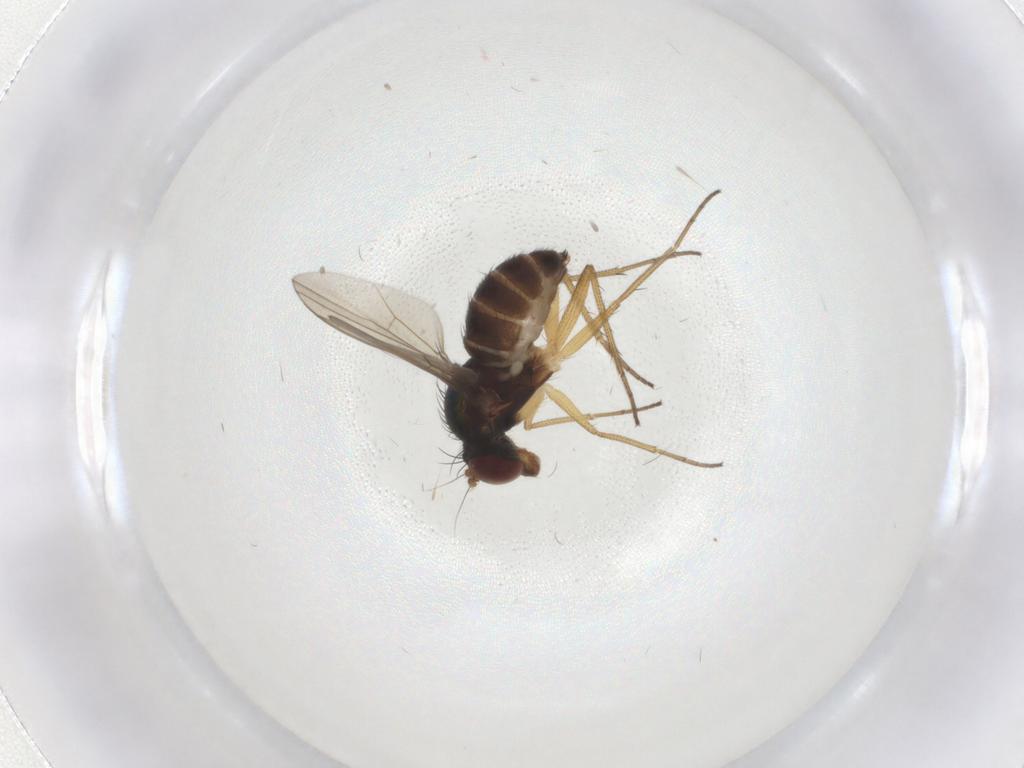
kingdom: Animalia
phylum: Arthropoda
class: Insecta
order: Diptera
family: Dolichopodidae
